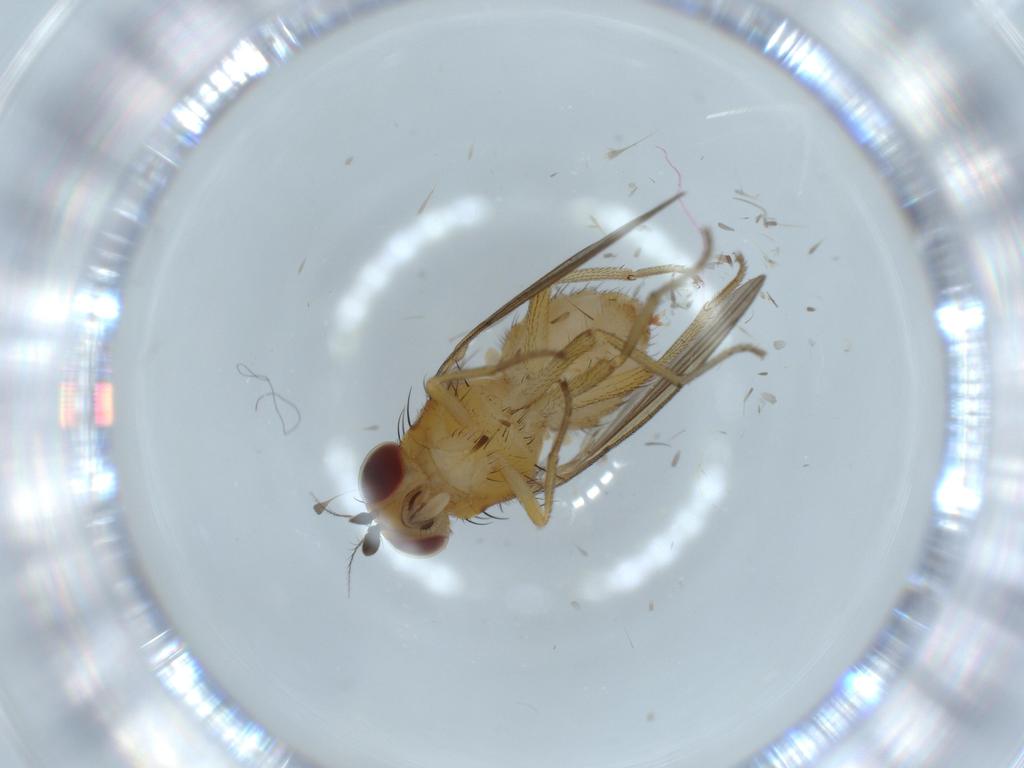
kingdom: Animalia
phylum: Arthropoda
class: Insecta
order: Diptera
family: Lauxaniidae
